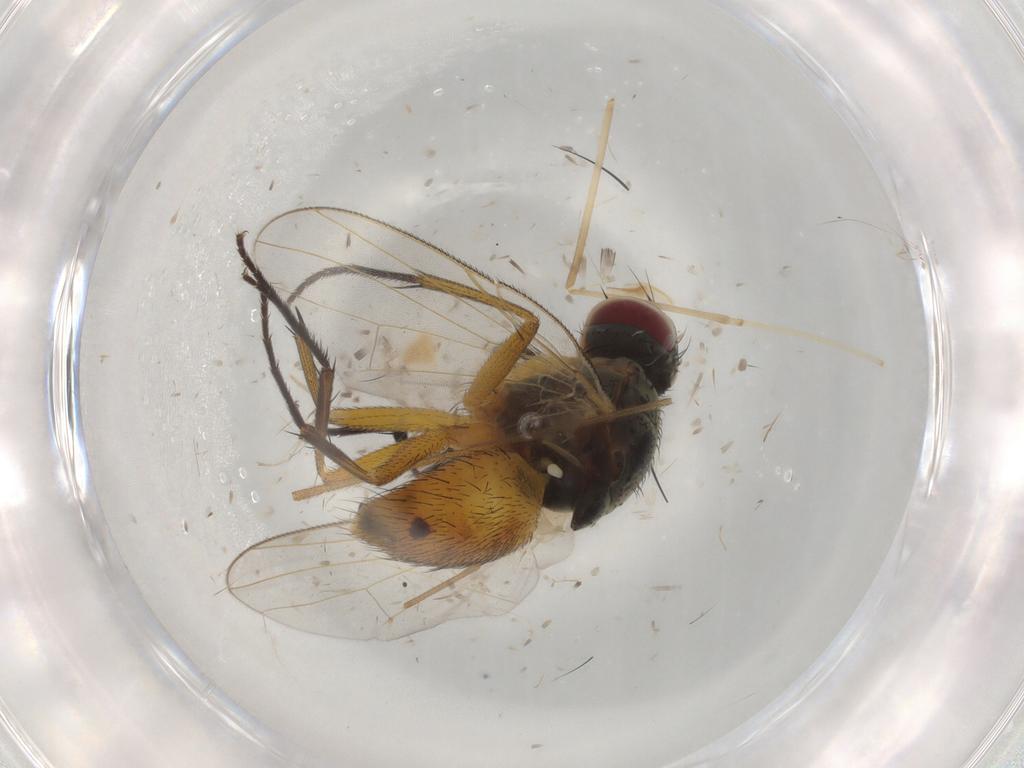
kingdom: Animalia
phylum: Arthropoda
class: Insecta
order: Diptera
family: Muscidae
